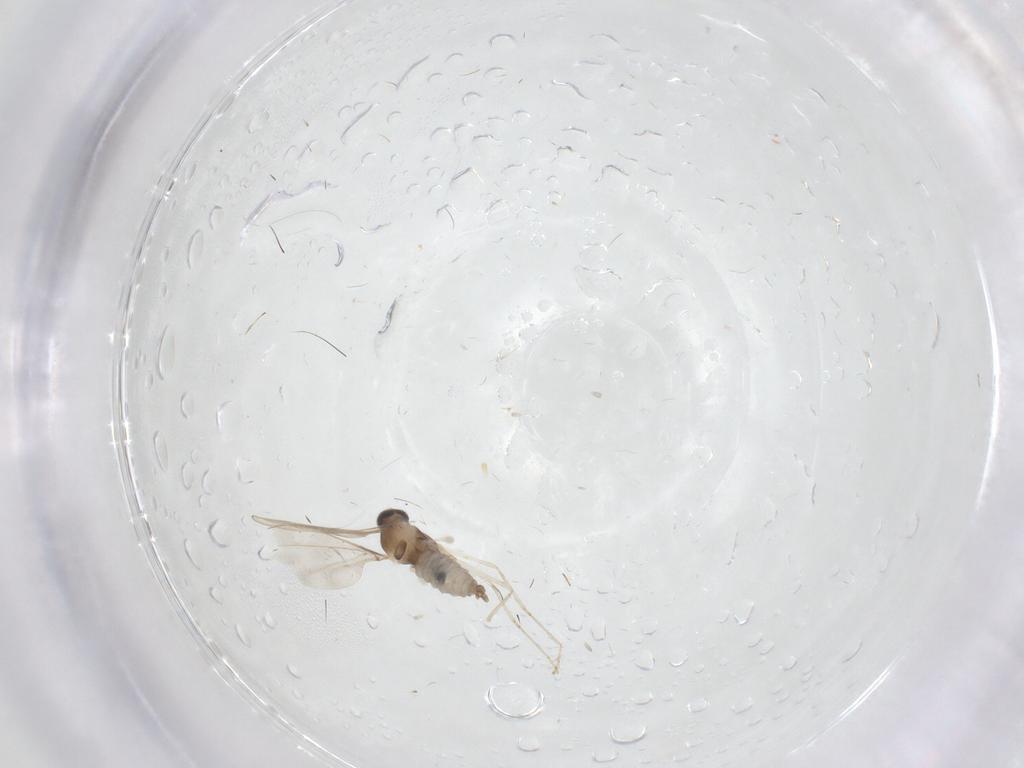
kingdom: Animalia
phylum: Arthropoda
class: Insecta
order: Diptera
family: Cecidomyiidae
